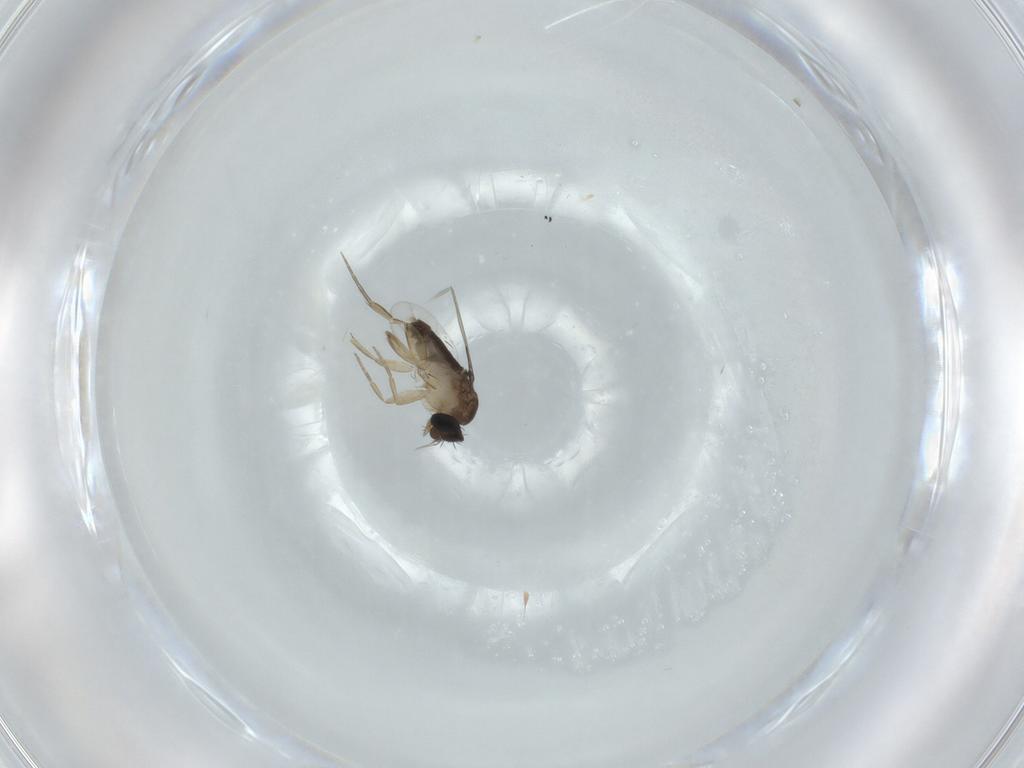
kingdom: Animalia
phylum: Arthropoda
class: Insecta
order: Diptera
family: Phoridae
